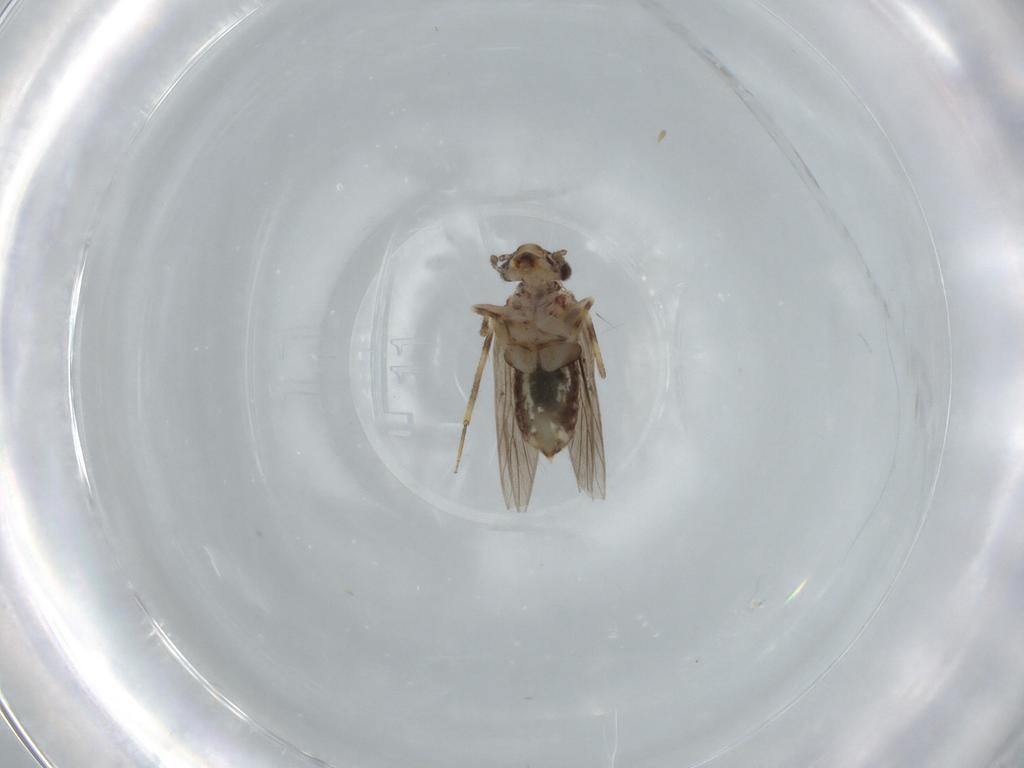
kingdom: Animalia
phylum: Arthropoda
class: Insecta
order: Psocodea
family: Lepidopsocidae
